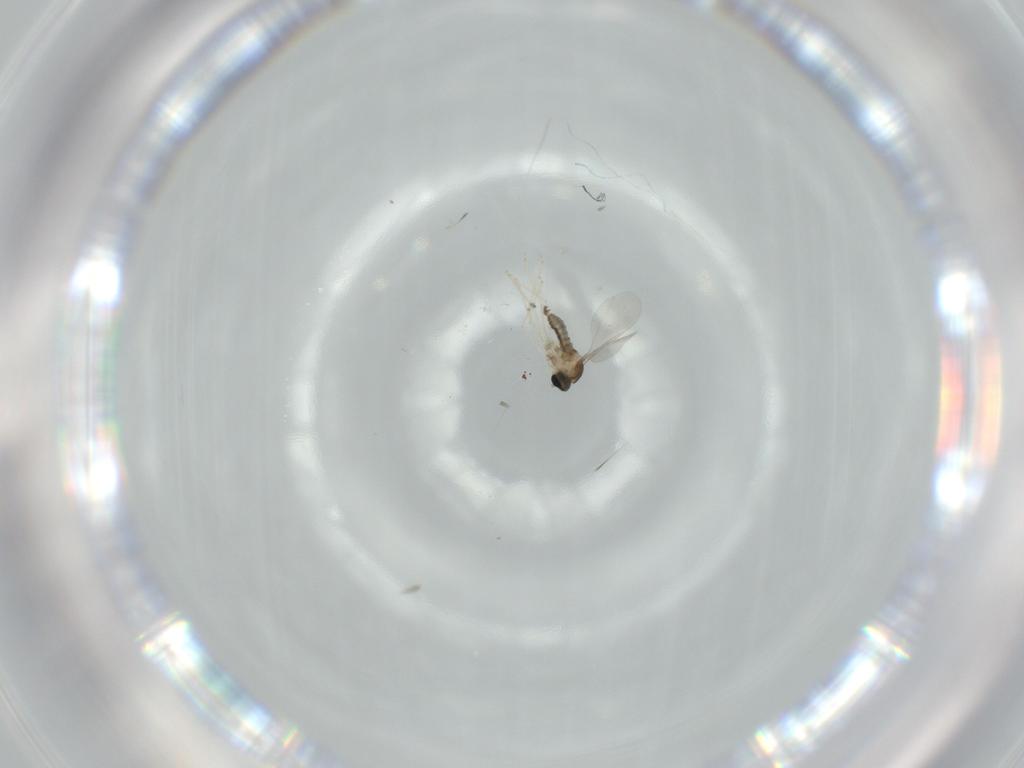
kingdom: Animalia
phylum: Arthropoda
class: Insecta
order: Diptera
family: Cecidomyiidae
